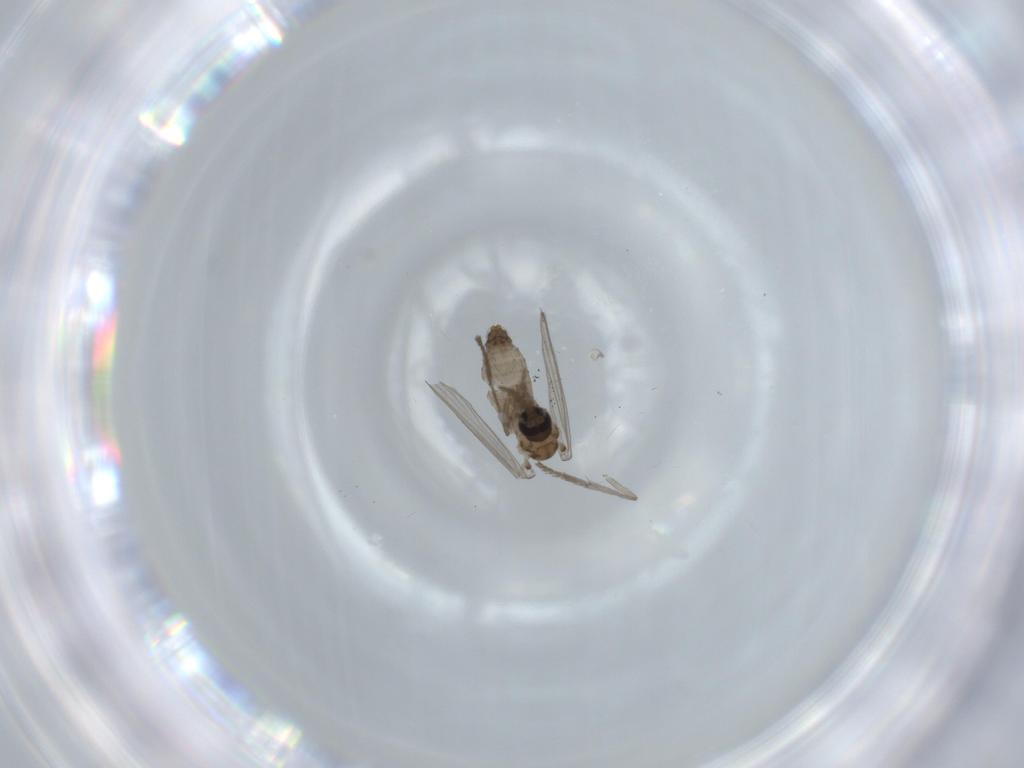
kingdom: Animalia
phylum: Arthropoda
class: Insecta
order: Diptera
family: Psychodidae
